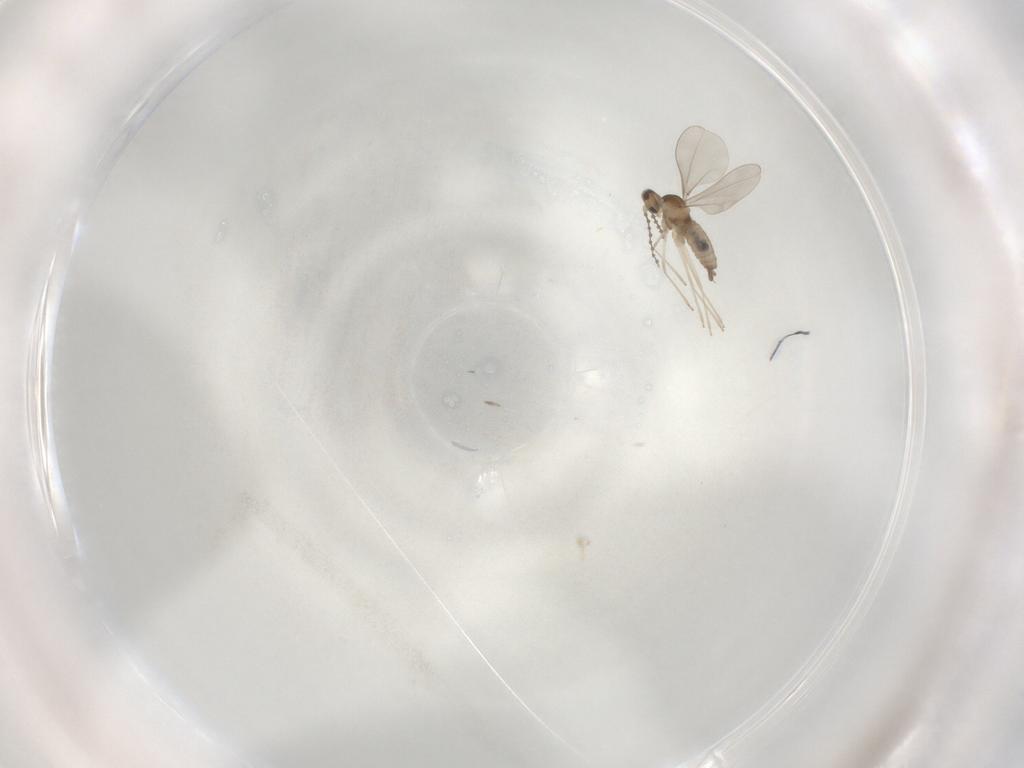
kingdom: Animalia
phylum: Arthropoda
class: Insecta
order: Diptera
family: Cecidomyiidae
